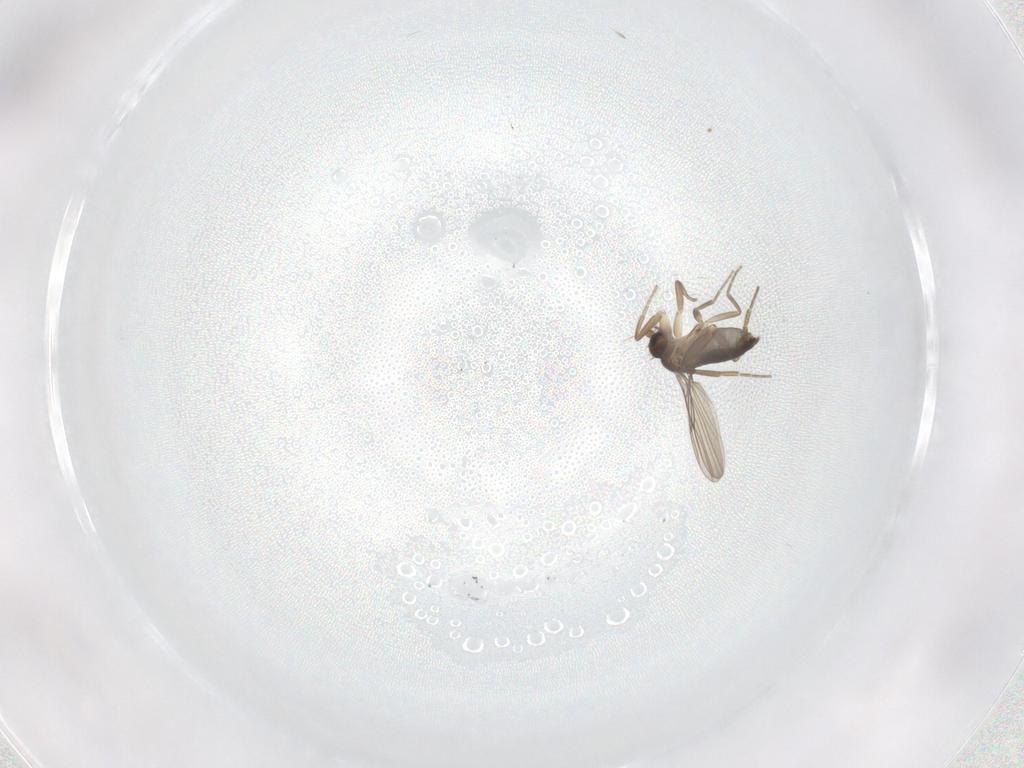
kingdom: Animalia
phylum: Arthropoda
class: Insecta
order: Diptera
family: Phoridae
